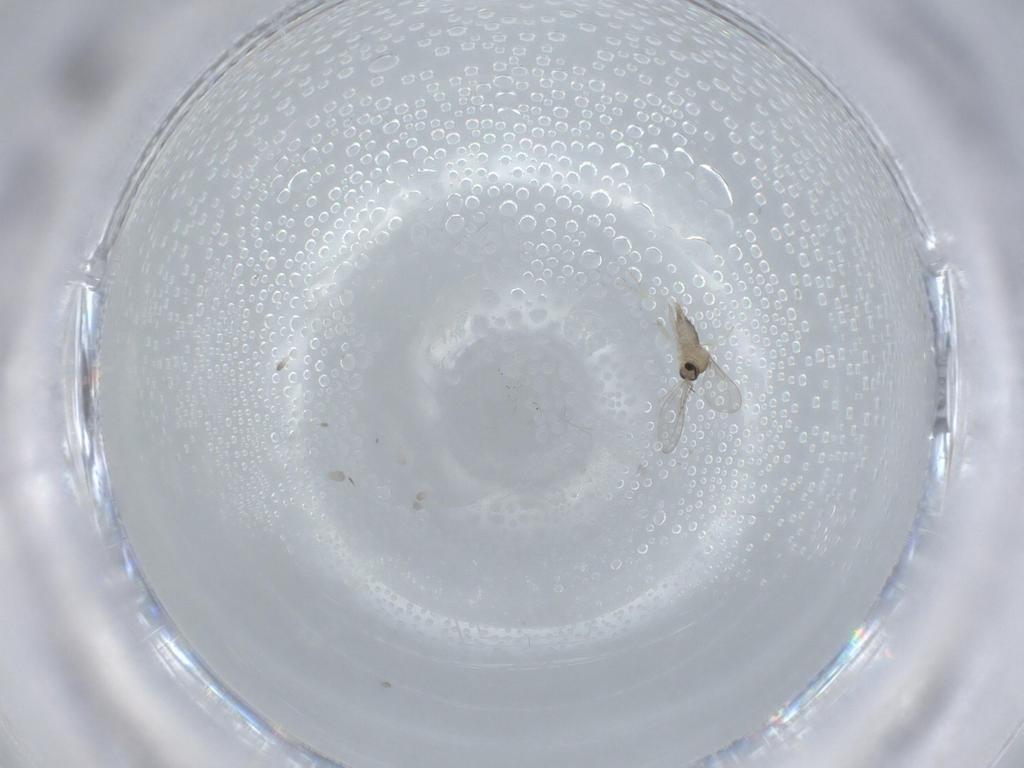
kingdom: Animalia
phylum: Arthropoda
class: Insecta
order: Diptera
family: Cecidomyiidae
